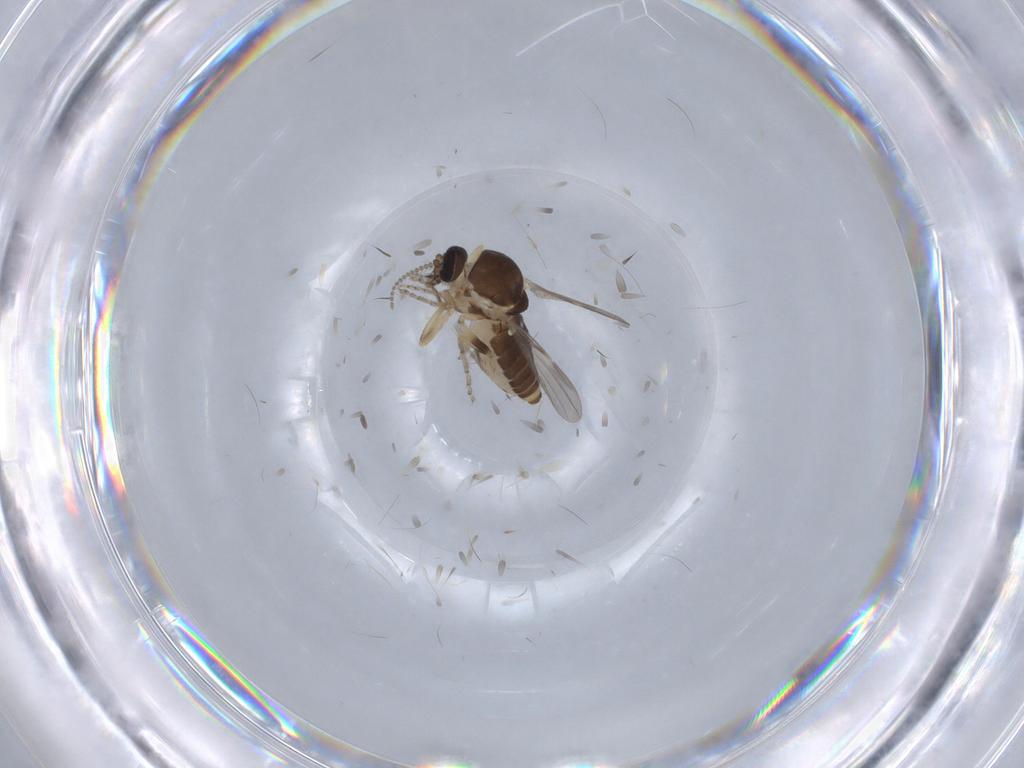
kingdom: Animalia
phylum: Arthropoda
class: Insecta
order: Diptera
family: Ceratopogonidae
